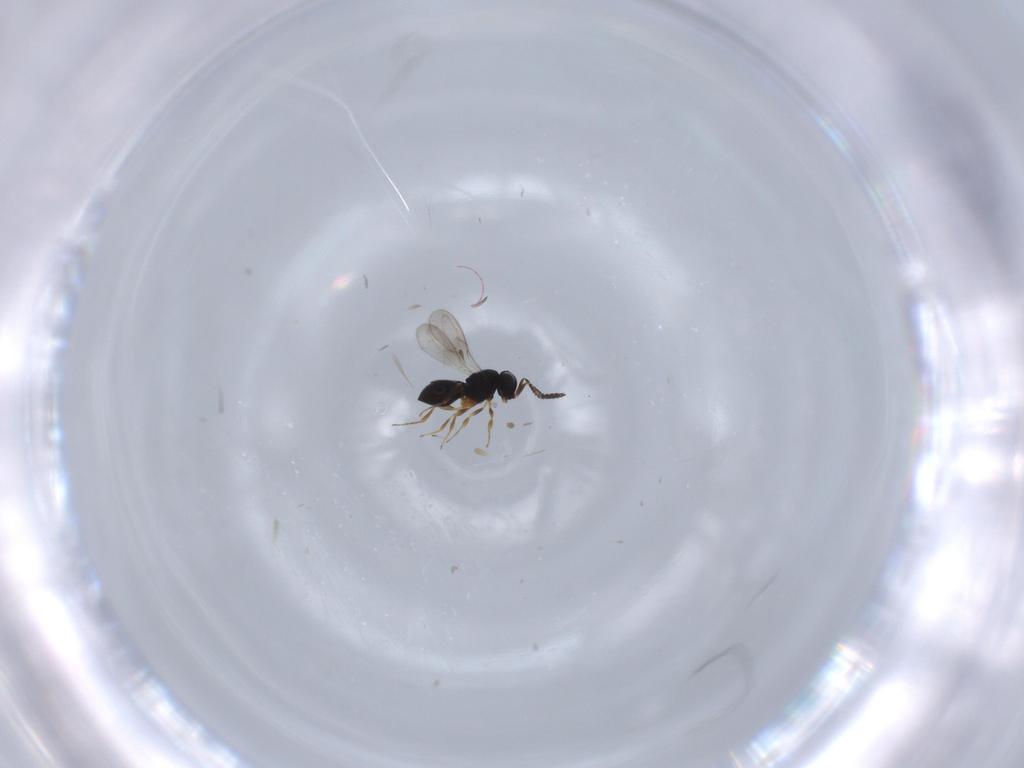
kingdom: Animalia
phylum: Arthropoda
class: Insecta
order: Hymenoptera
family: Scelionidae
